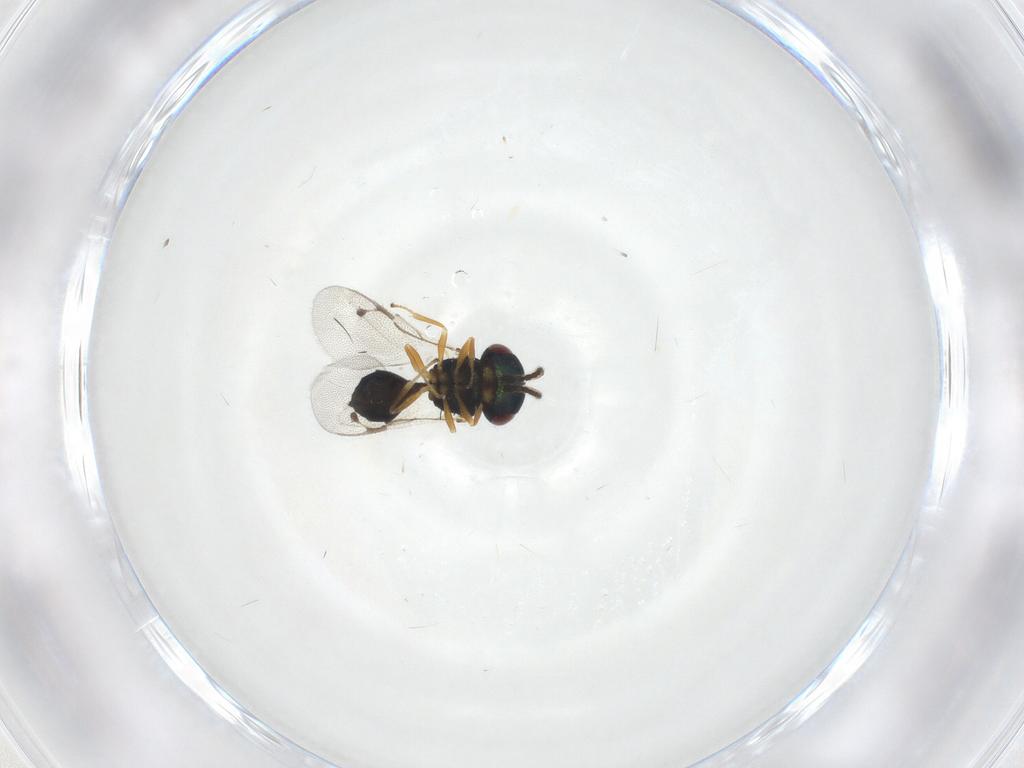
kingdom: Animalia
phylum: Arthropoda
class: Insecta
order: Hymenoptera
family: Pteromalidae
